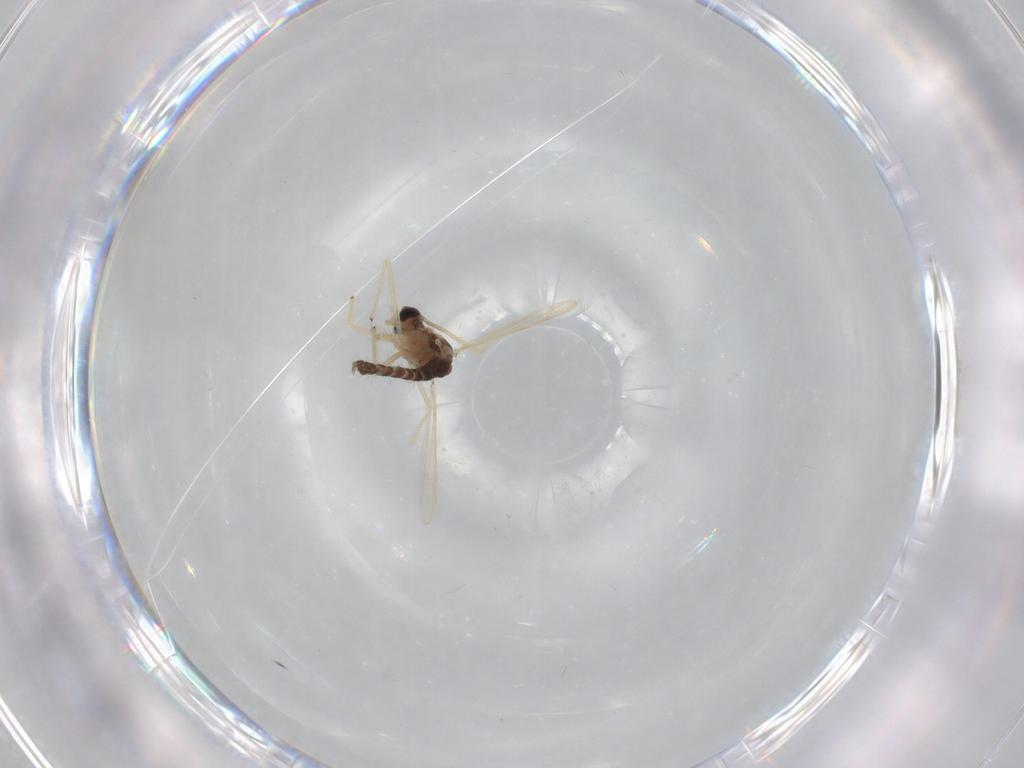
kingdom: Animalia
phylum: Arthropoda
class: Insecta
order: Diptera
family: Chironomidae
